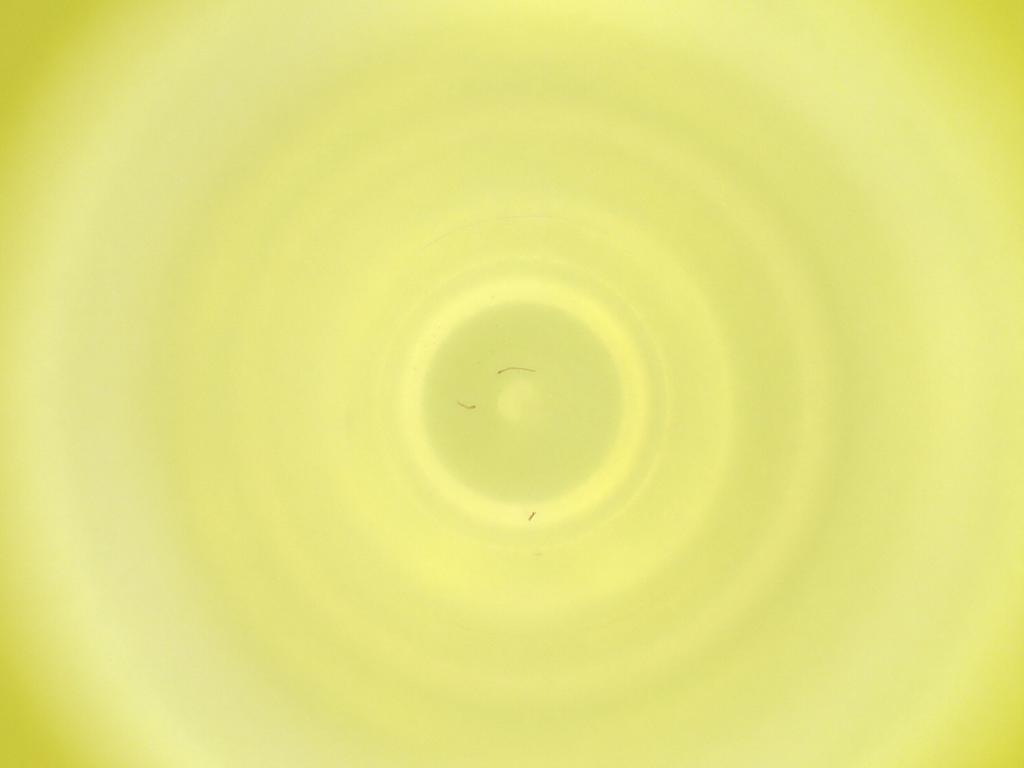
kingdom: Animalia
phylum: Arthropoda
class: Insecta
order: Diptera
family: Cecidomyiidae
